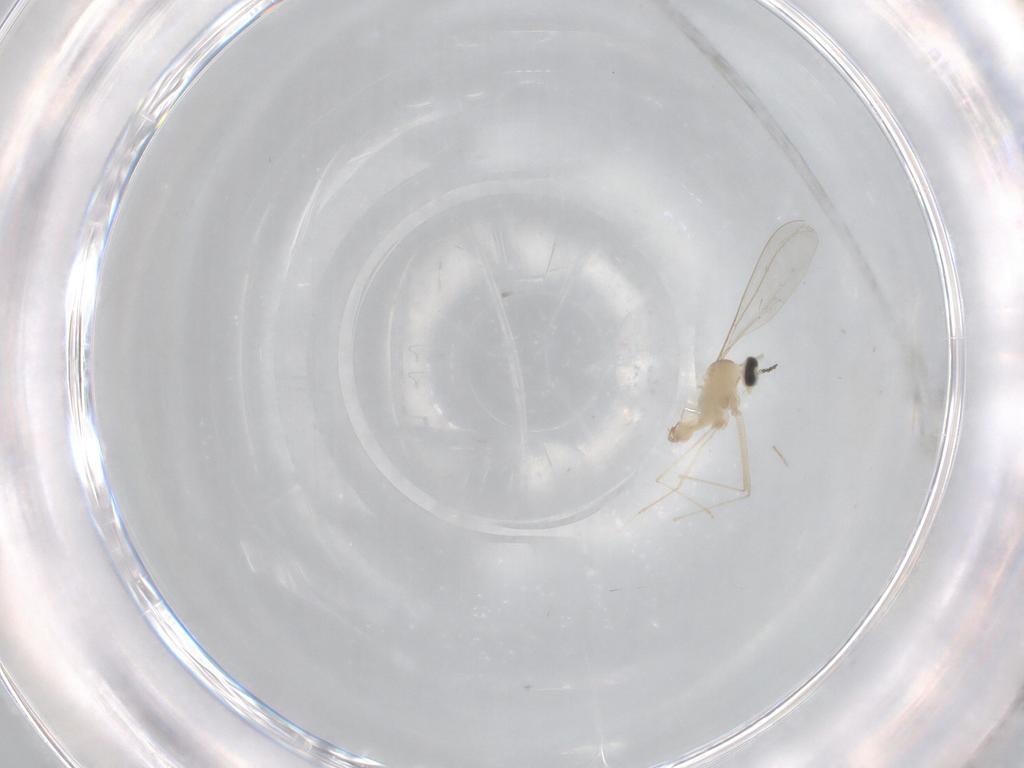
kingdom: Animalia
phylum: Arthropoda
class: Insecta
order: Diptera
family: Cecidomyiidae
